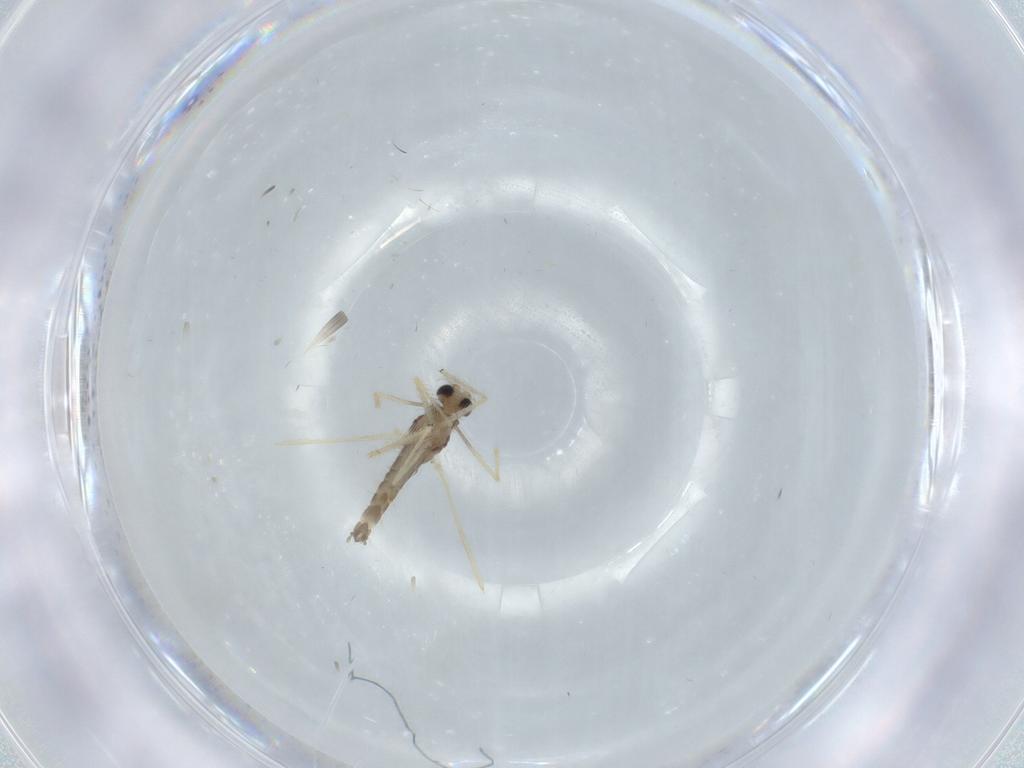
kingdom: Animalia
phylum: Arthropoda
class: Insecta
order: Diptera
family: Chironomidae
